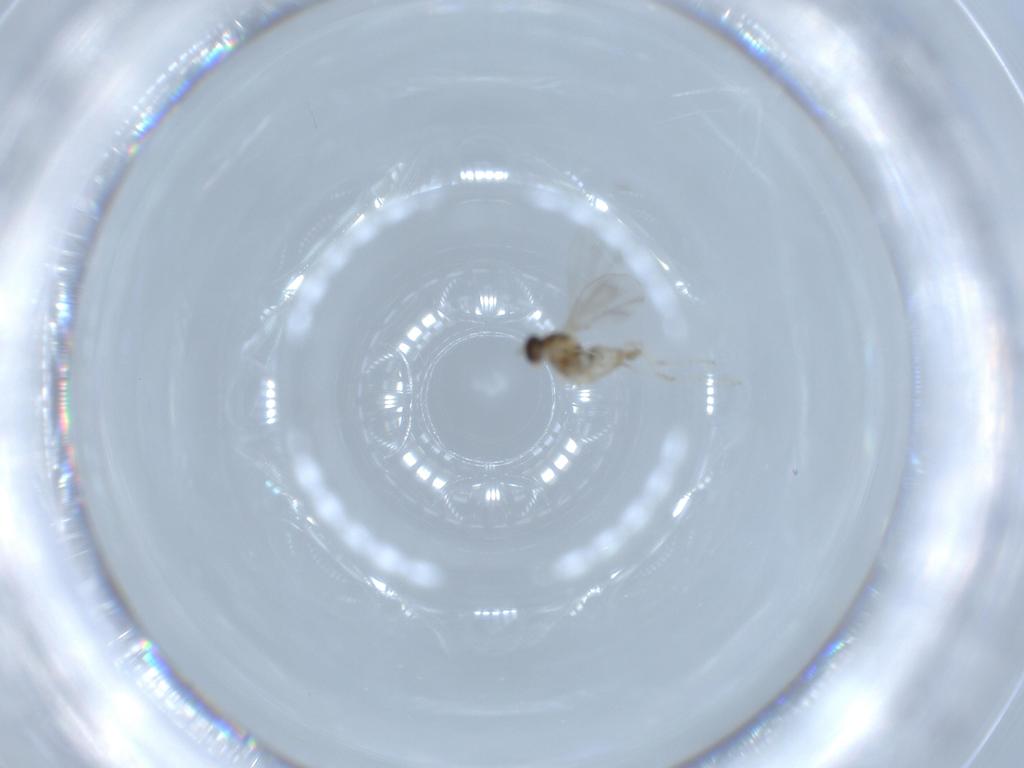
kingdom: Animalia
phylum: Arthropoda
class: Insecta
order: Diptera
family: Psychodidae
